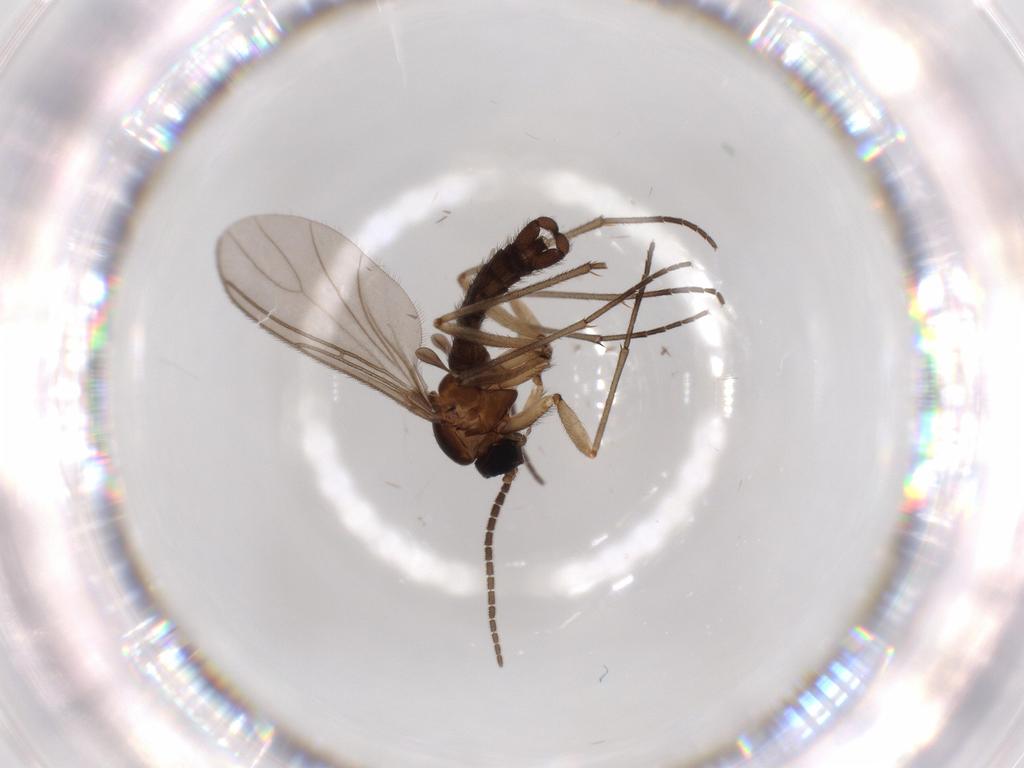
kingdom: Animalia
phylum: Arthropoda
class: Insecta
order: Diptera
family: Sciaridae
